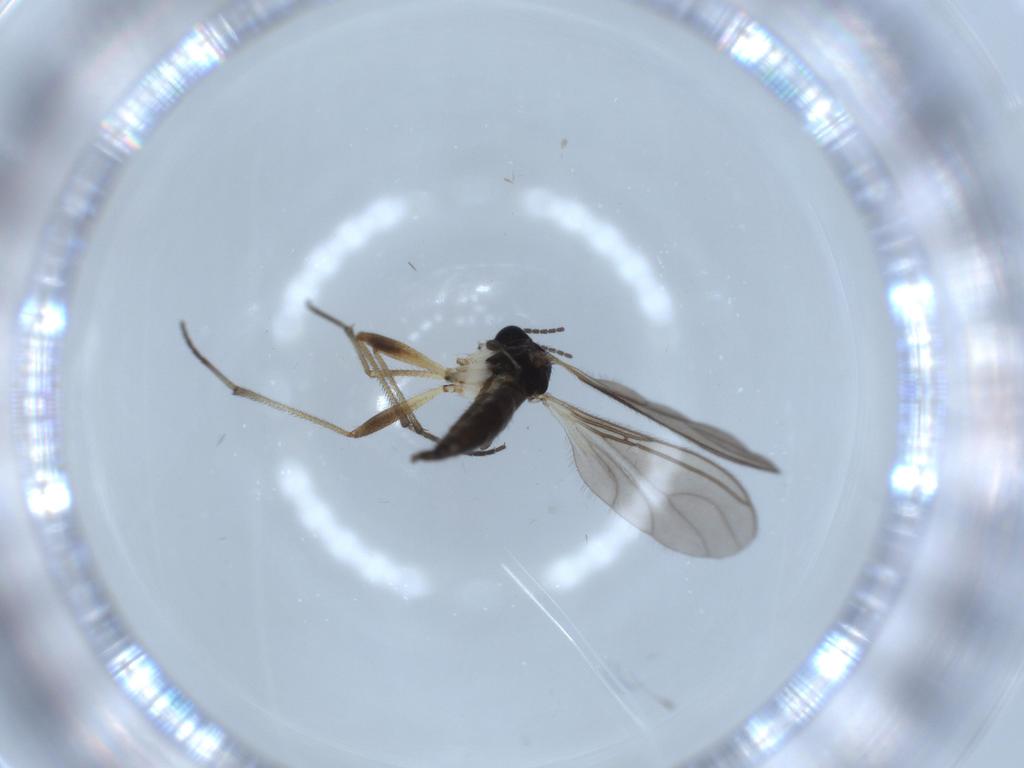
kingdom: Animalia
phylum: Arthropoda
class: Insecta
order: Diptera
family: Sciaridae
